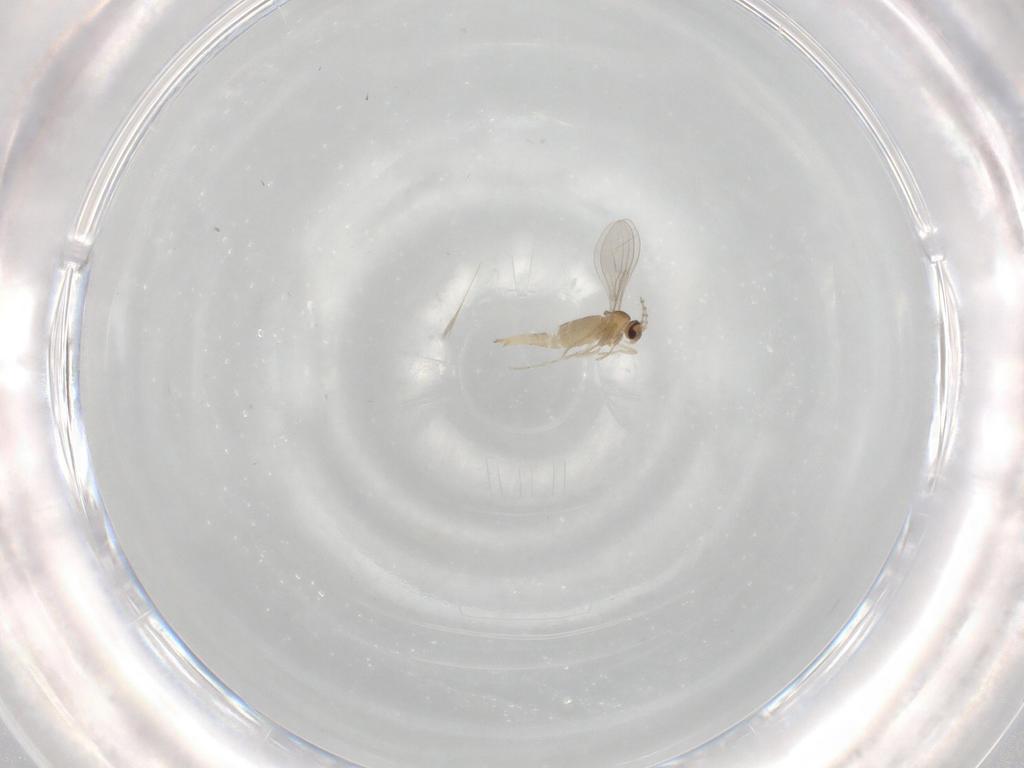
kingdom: Animalia
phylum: Arthropoda
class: Insecta
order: Diptera
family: Cecidomyiidae
